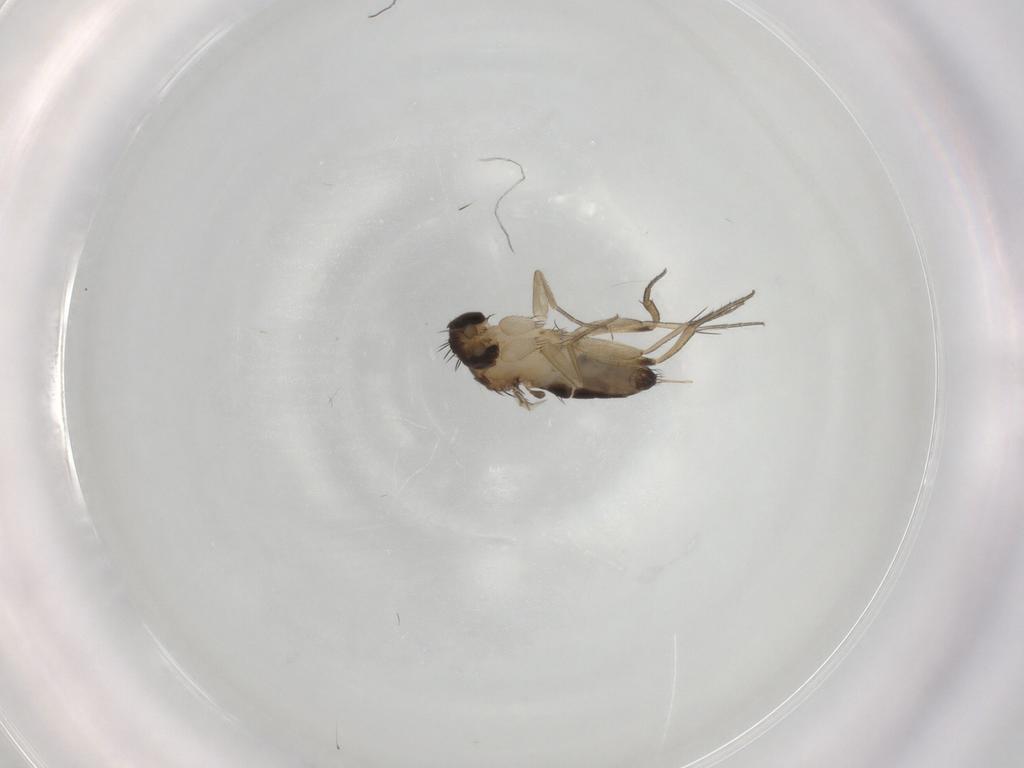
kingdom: Animalia
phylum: Arthropoda
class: Insecta
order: Diptera
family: Phoridae
